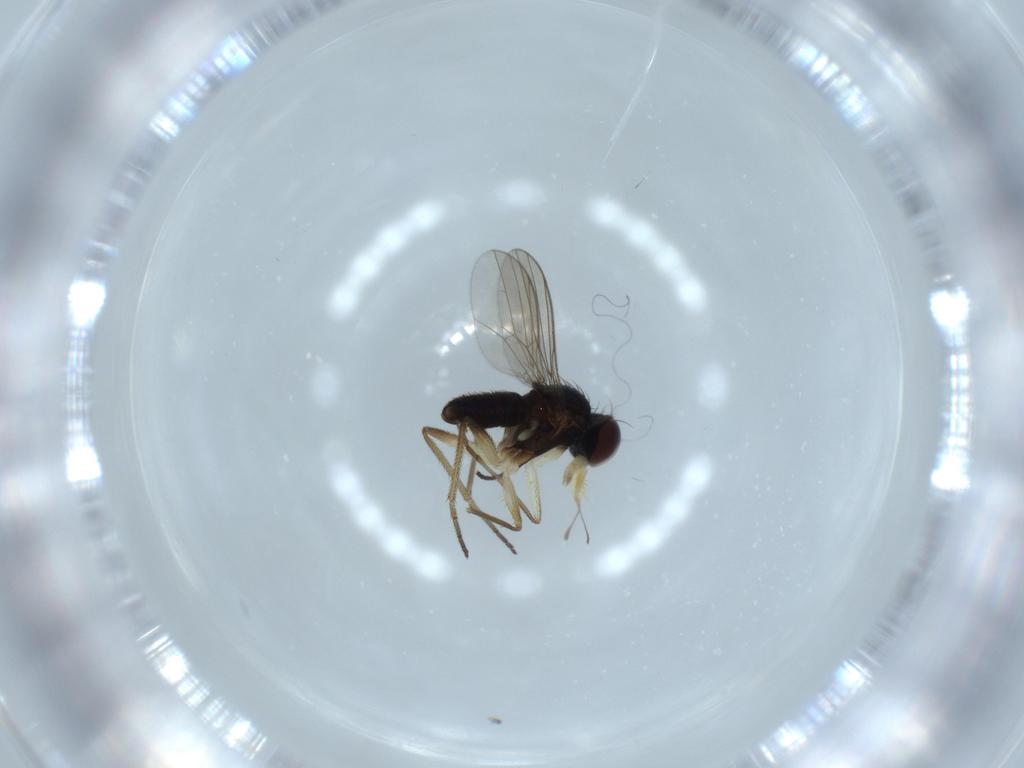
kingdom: Animalia
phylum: Arthropoda
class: Insecta
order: Diptera
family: Dolichopodidae
